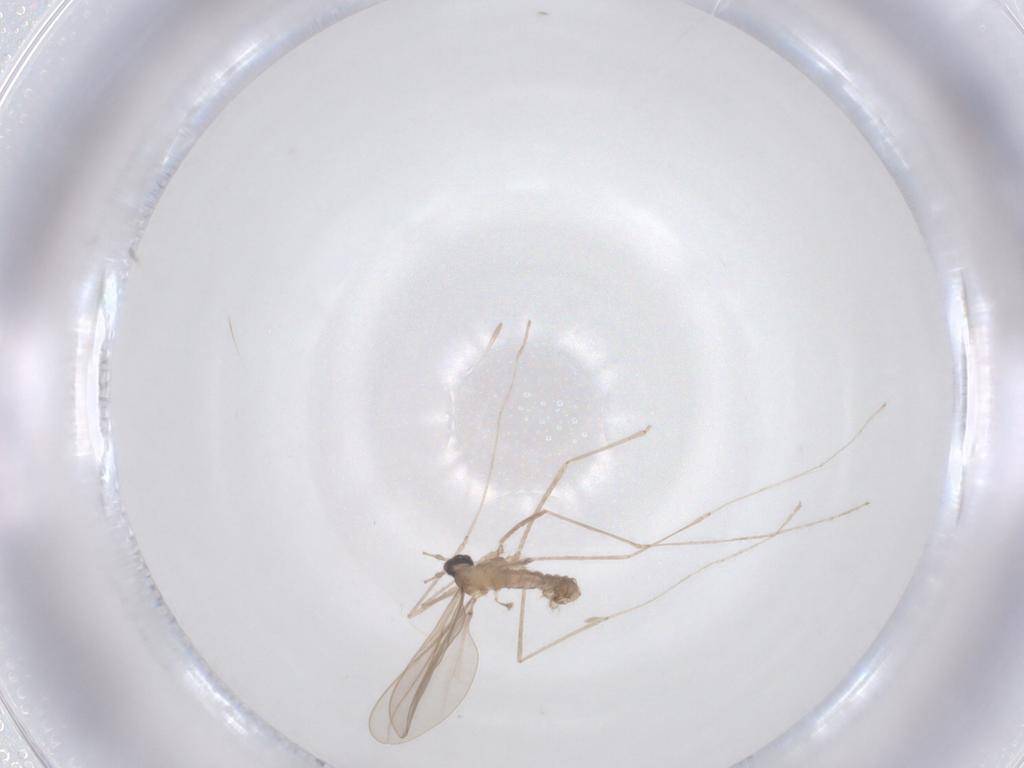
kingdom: Animalia
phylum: Arthropoda
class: Insecta
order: Diptera
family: Cecidomyiidae
